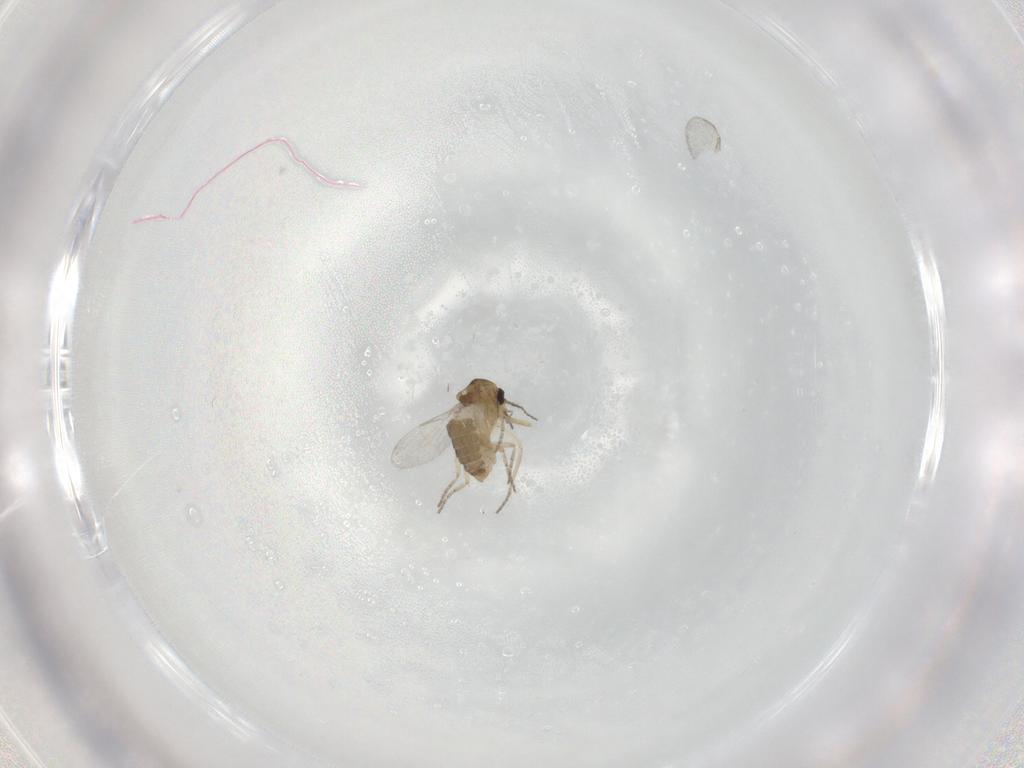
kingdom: Animalia
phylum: Arthropoda
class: Insecta
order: Diptera
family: Ceratopogonidae
